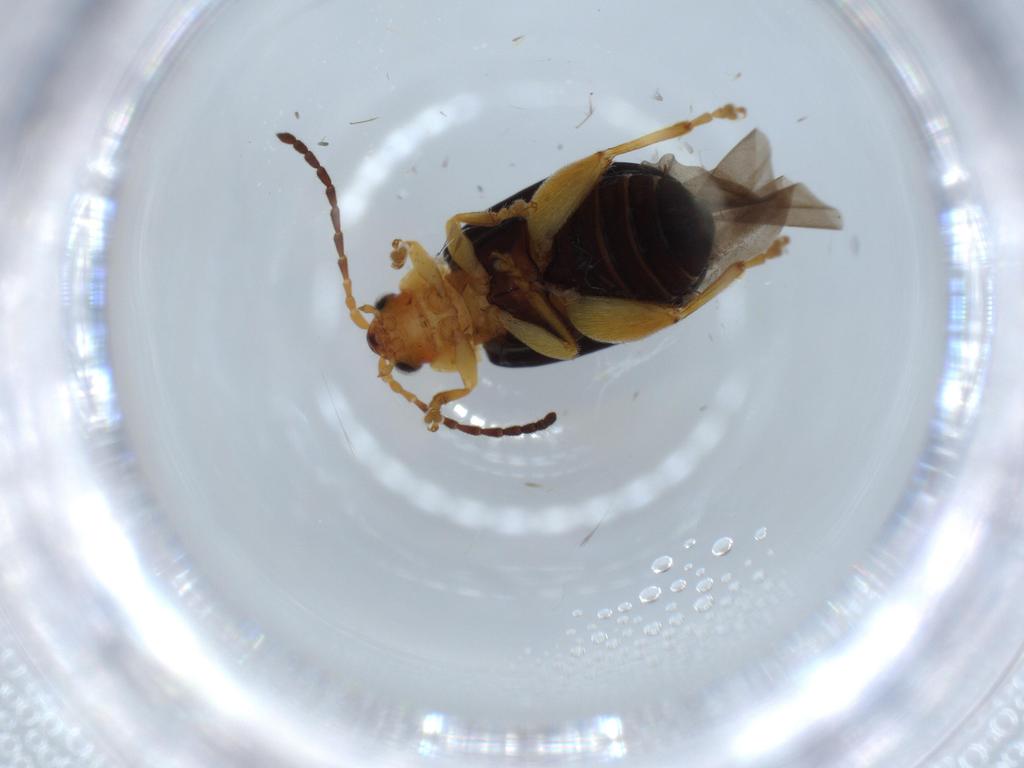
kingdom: Animalia
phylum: Arthropoda
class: Insecta
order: Coleoptera
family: Chrysomelidae
